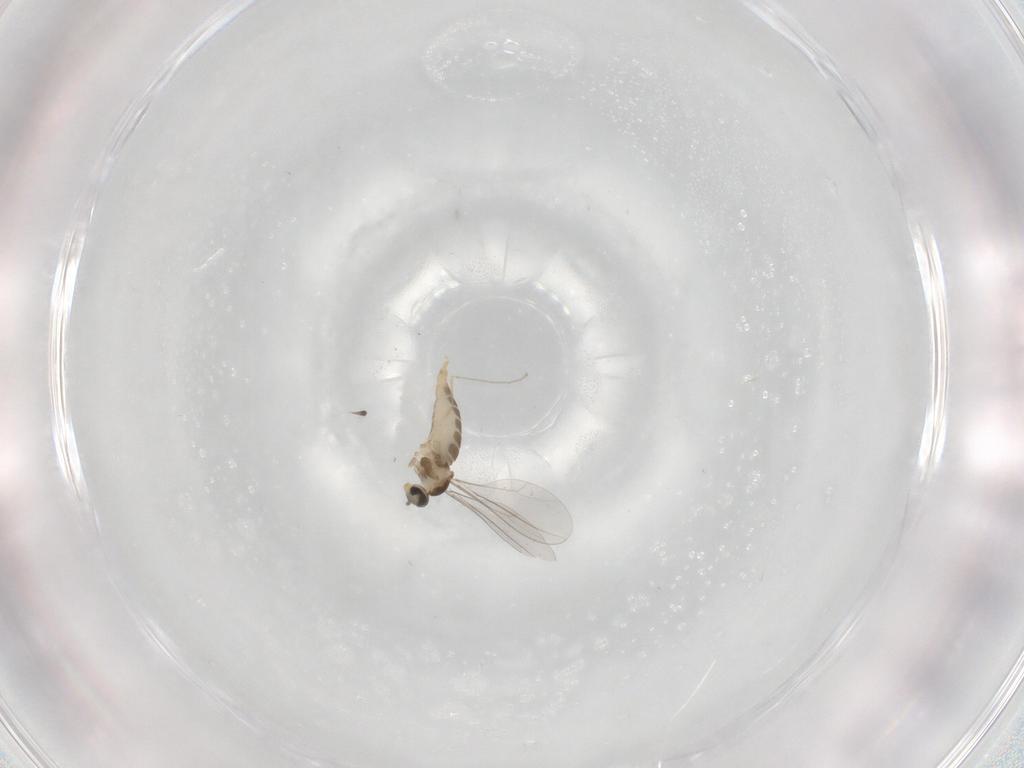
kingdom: Animalia
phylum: Arthropoda
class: Insecta
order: Diptera
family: Cecidomyiidae
